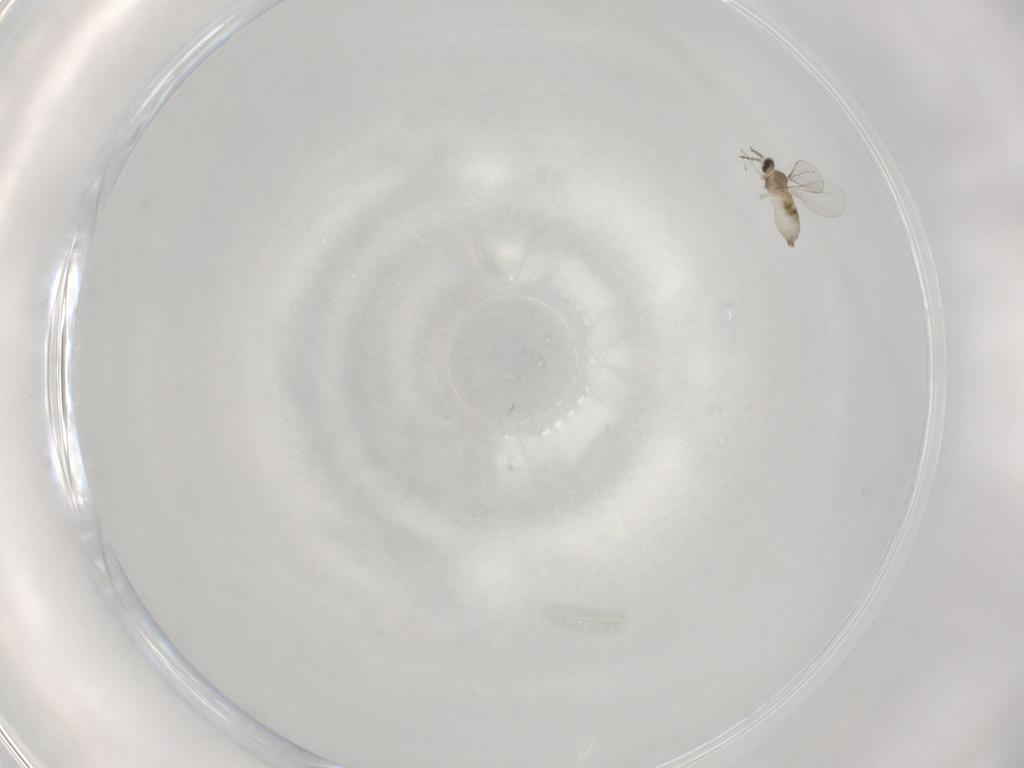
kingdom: Animalia
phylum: Arthropoda
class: Insecta
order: Diptera
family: Cecidomyiidae
